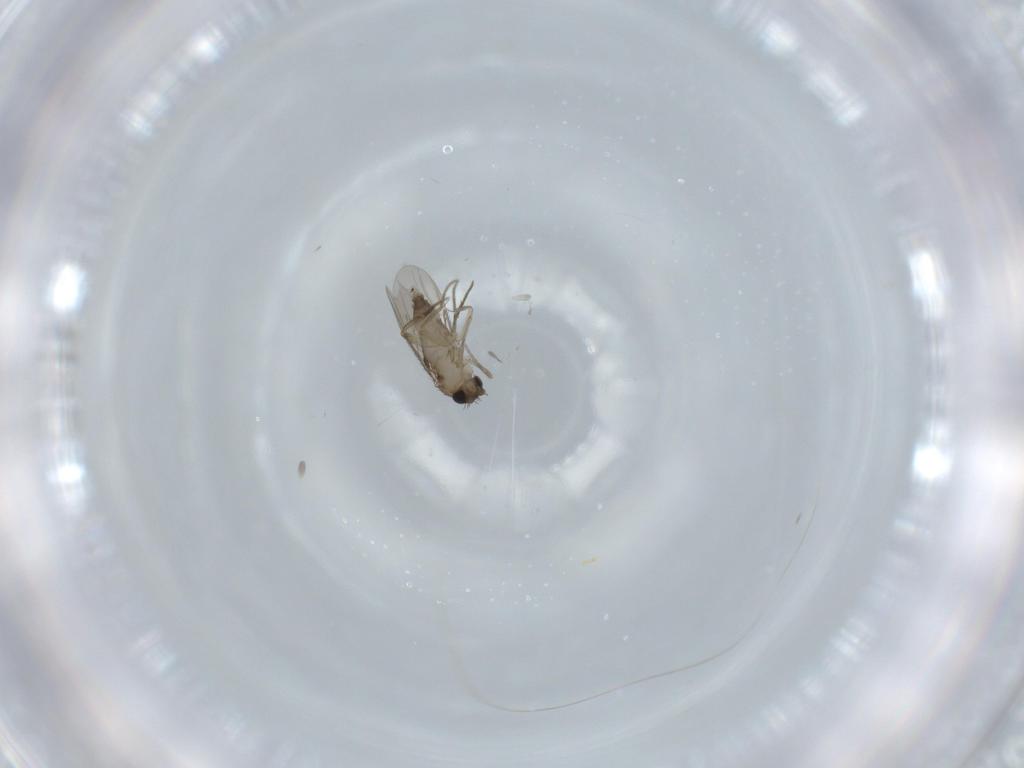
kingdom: Animalia
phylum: Arthropoda
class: Insecta
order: Diptera
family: Phoridae
